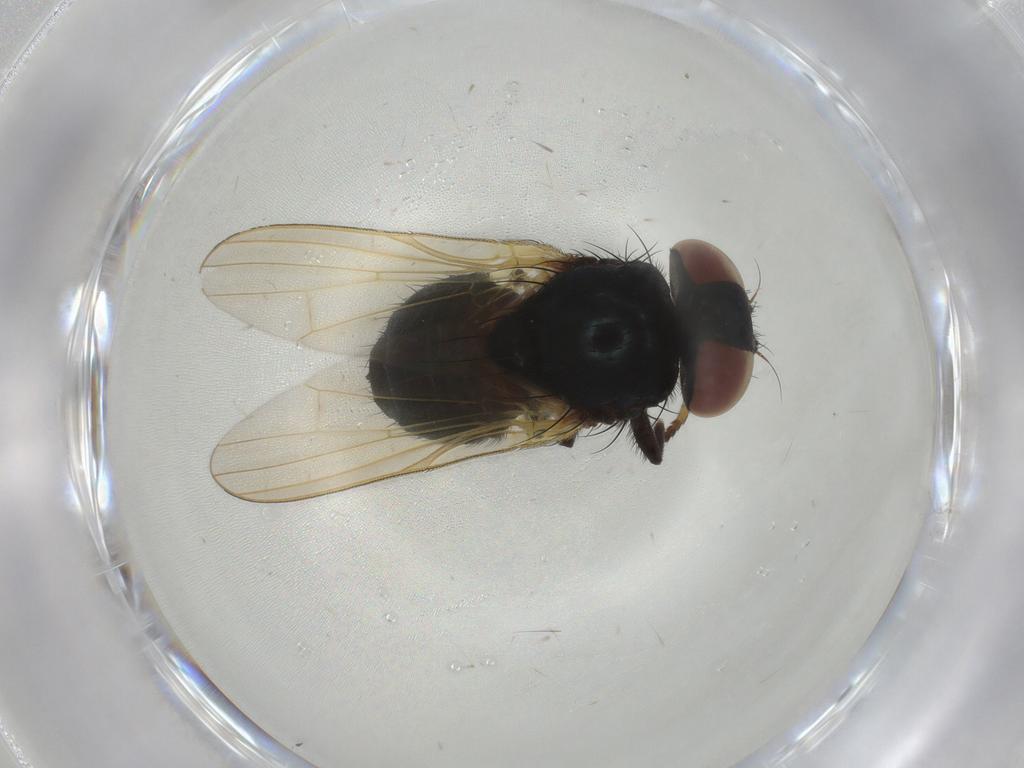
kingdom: Animalia
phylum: Arthropoda
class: Insecta
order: Diptera
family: Lonchaeidae
